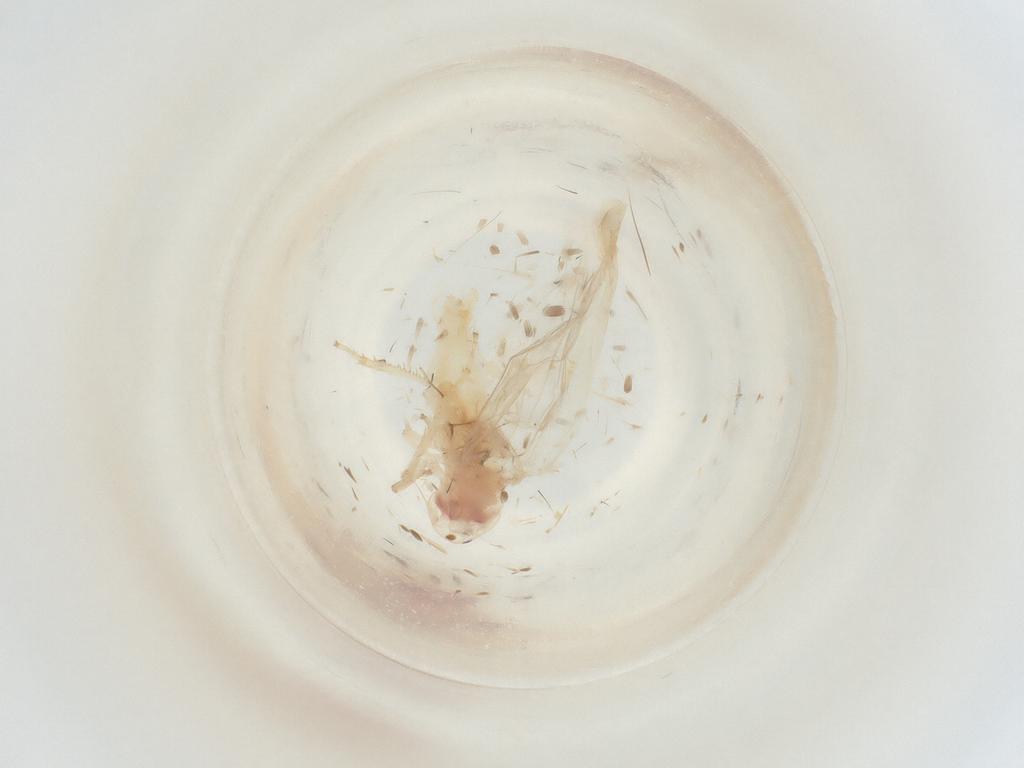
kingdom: Animalia
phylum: Arthropoda
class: Insecta
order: Hemiptera
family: Cicadellidae
